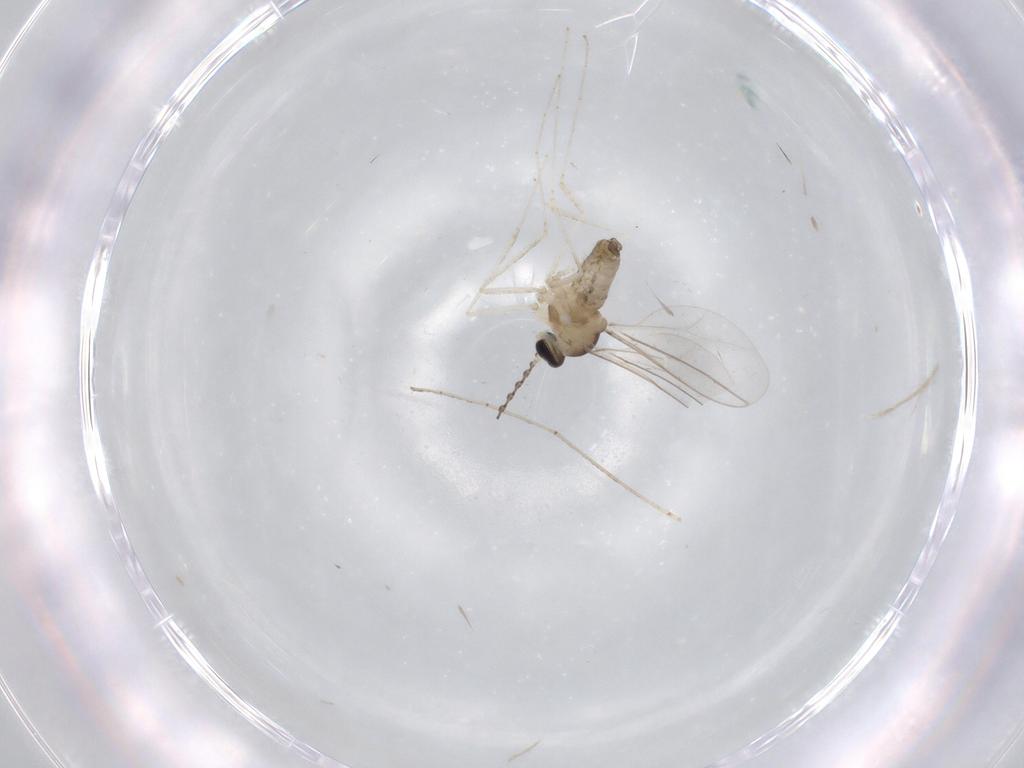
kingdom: Animalia
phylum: Arthropoda
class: Insecta
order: Diptera
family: Cecidomyiidae
